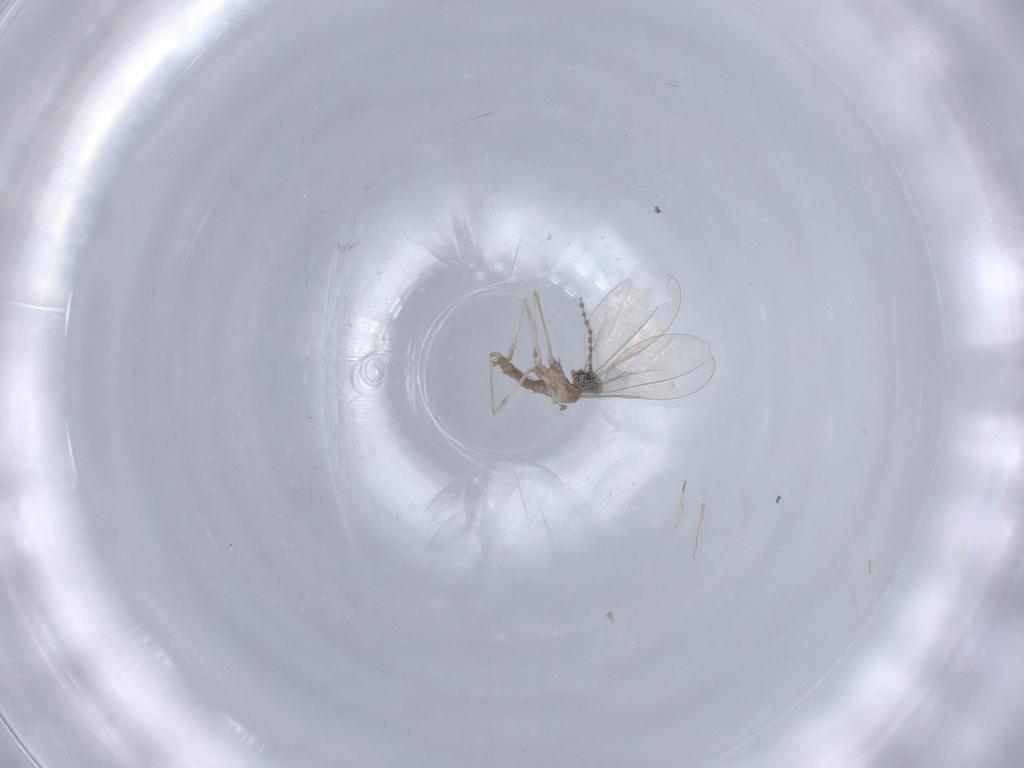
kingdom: Animalia
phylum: Arthropoda
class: Insecta
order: Diptera
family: Cecidomyiidae
